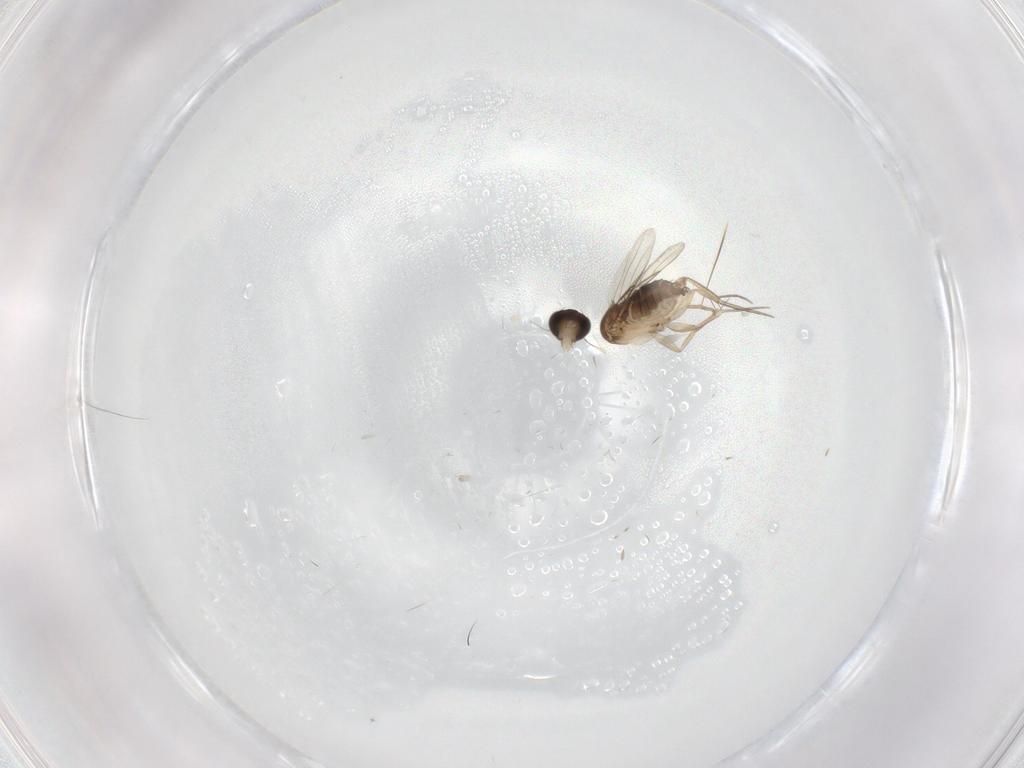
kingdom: Animalia
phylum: Arthropoda
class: Insecta
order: Diptera
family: Phoridae
